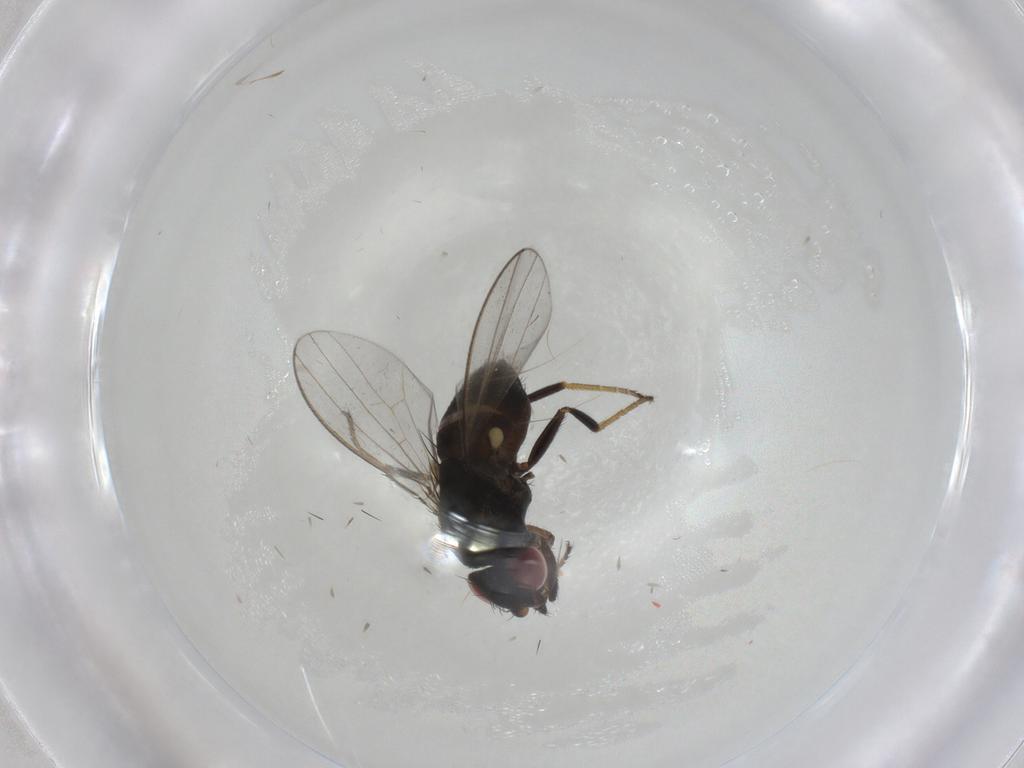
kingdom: Animalia
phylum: Arthropoda
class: Insecta
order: Diptera
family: Milichiidae
